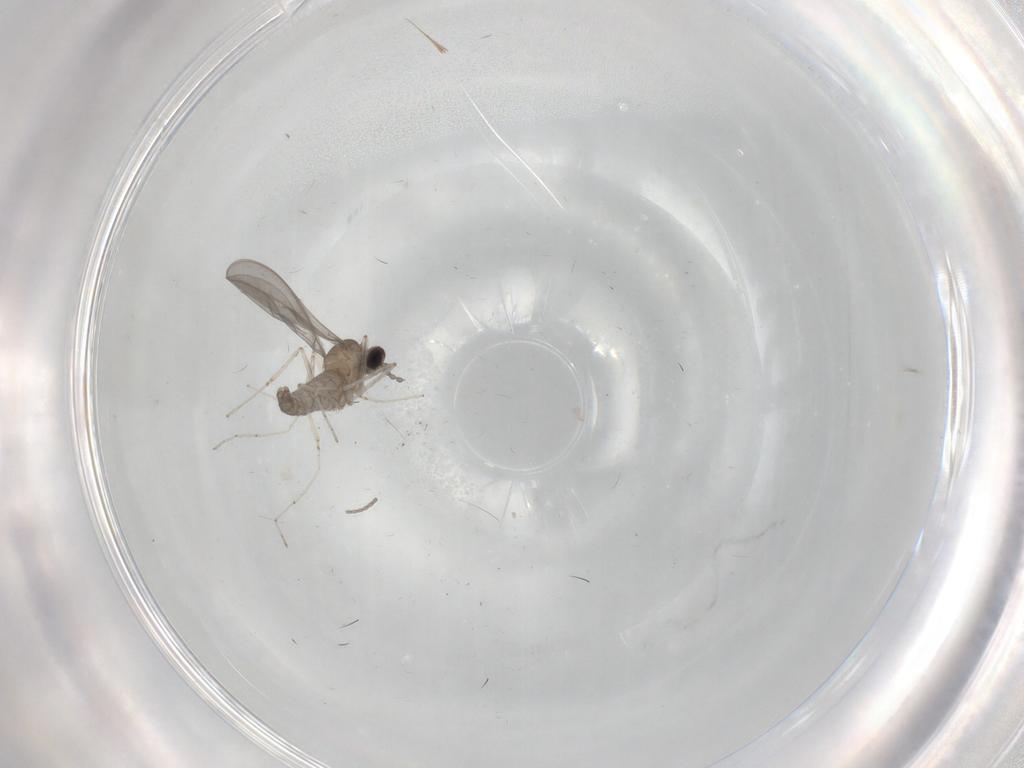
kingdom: Animalia
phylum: Arthropoda
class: Insecta
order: Diptera
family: Cecidomyiidae
